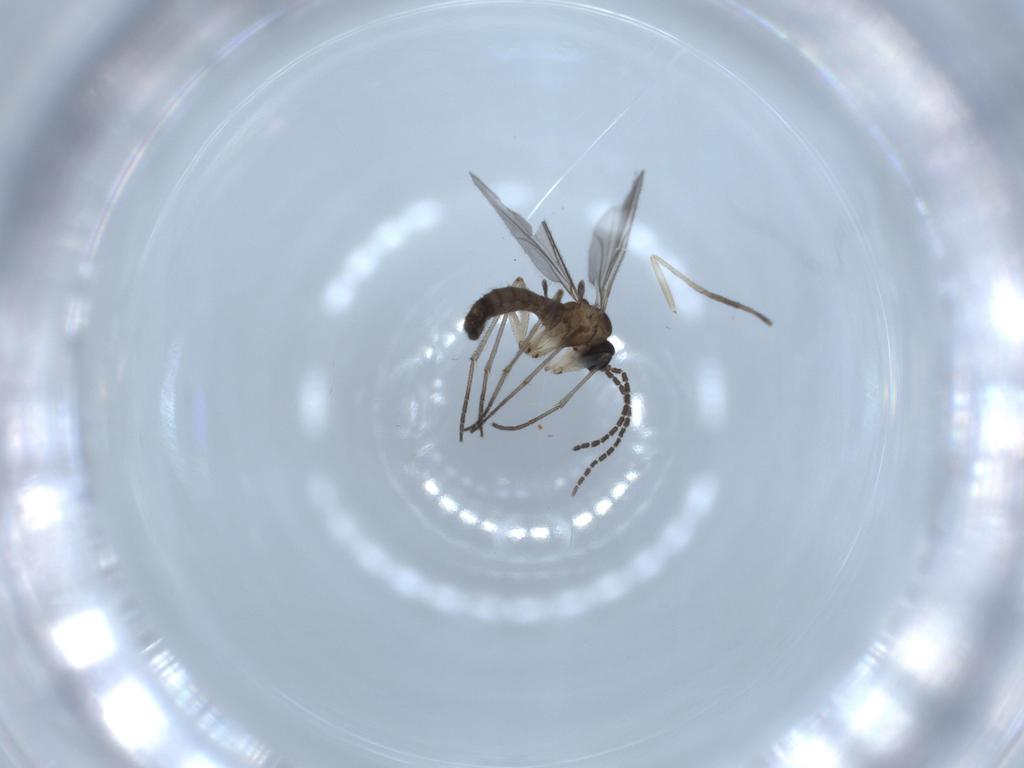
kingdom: Animalia
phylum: Arthropoda
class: Insecta
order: Diptera
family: Sciaridae
